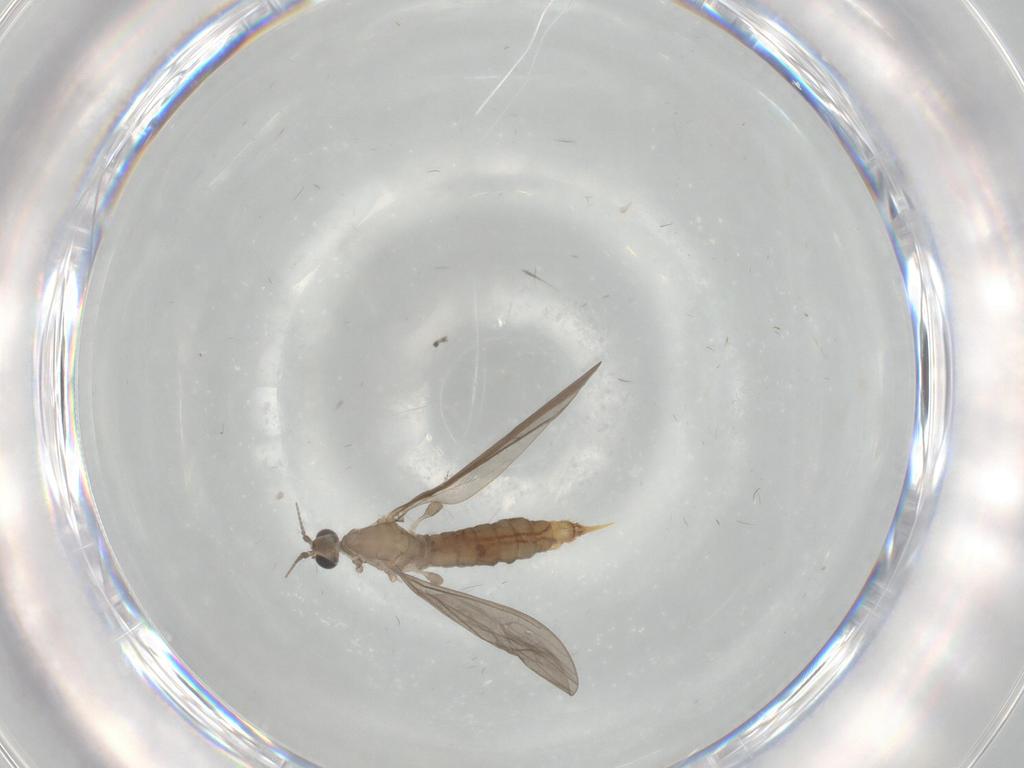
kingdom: Animalia
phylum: Arthropoda
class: Insecta
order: Diptera
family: Limoniidae
